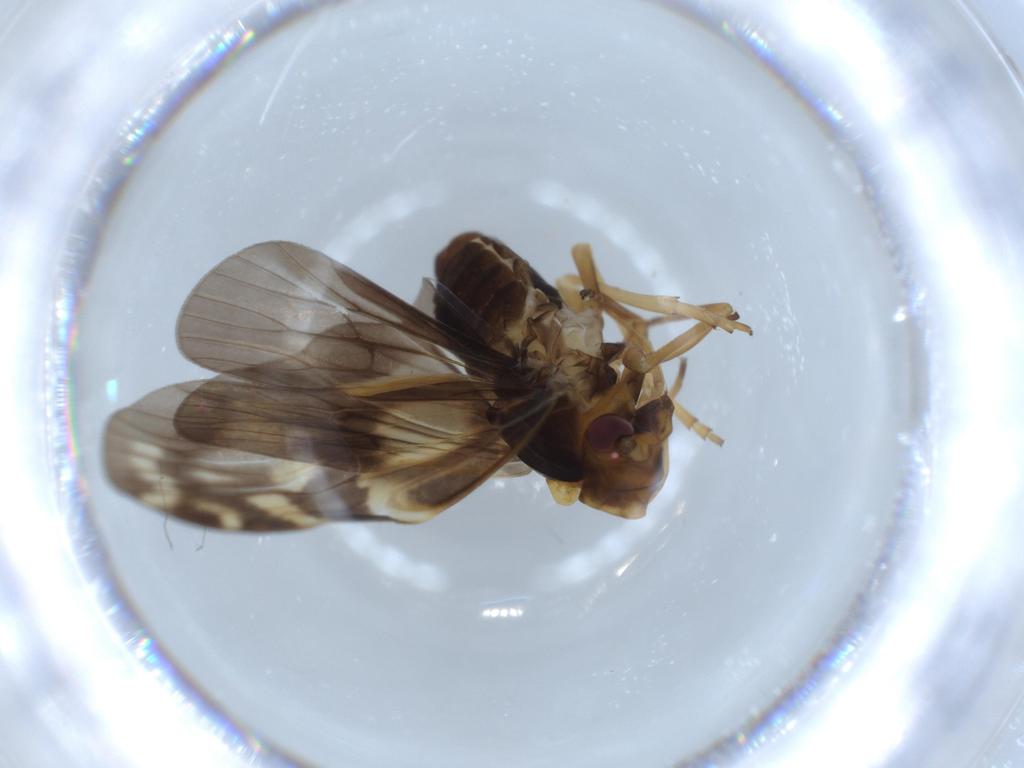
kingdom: Animalia
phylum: Arthropoda
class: Insecta
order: Hemiptera
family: Cixiidae
